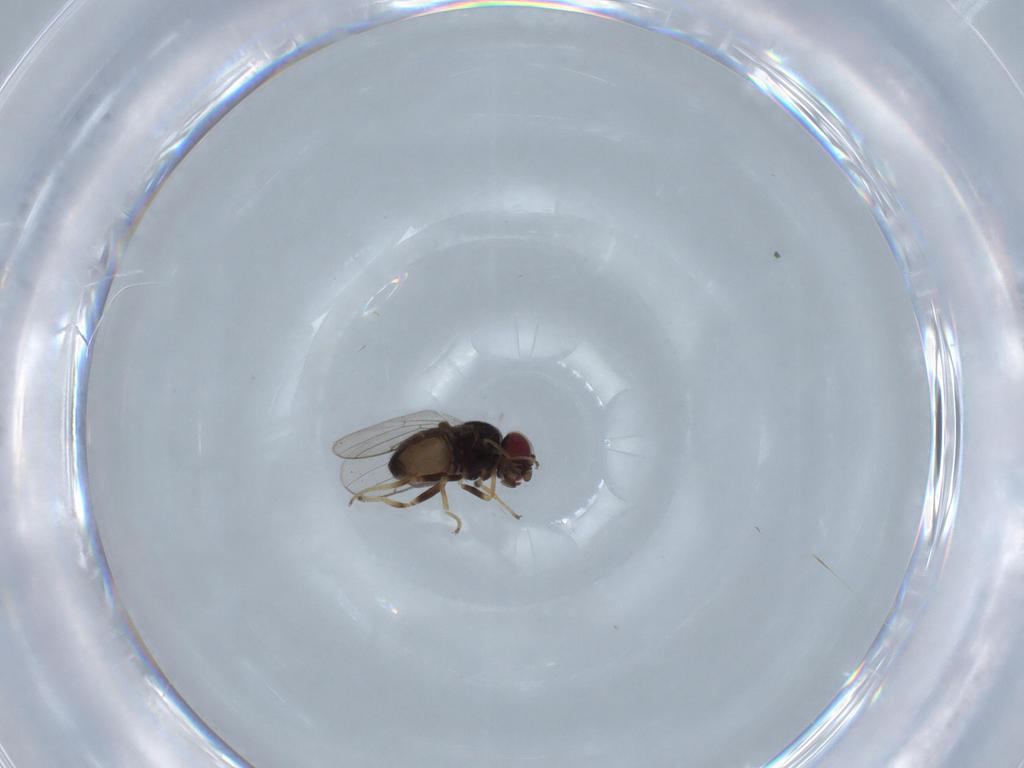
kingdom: Animalia
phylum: Arthropoda
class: Insecta
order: Diptera
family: Chloropidae
